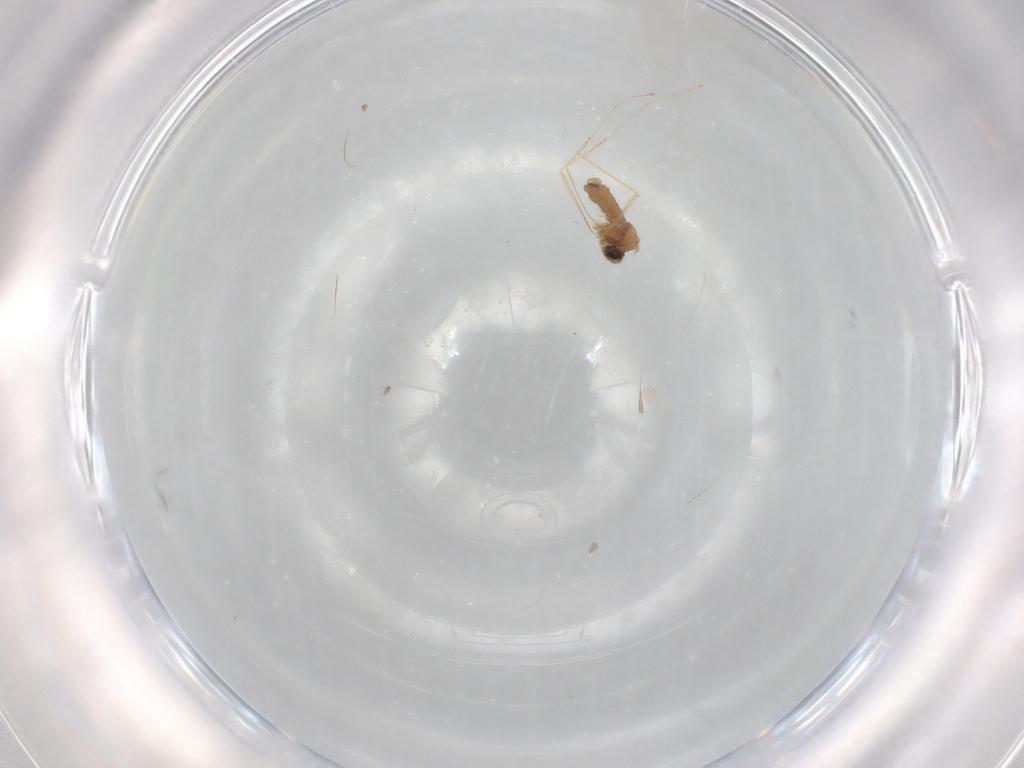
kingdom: Animalia
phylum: Arthropoda
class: Insecta
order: Diptera
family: Cecidomyiidae
